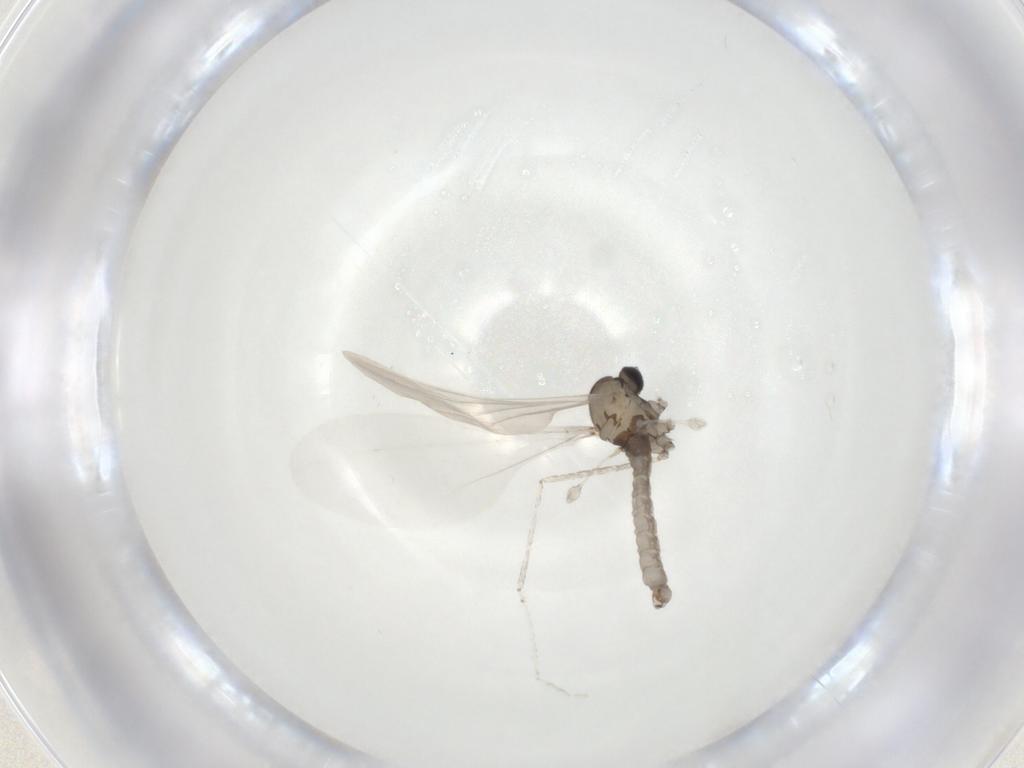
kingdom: Animalia
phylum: Arthropoda
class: Insecta
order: Diptera
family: Cecidomyiidae
